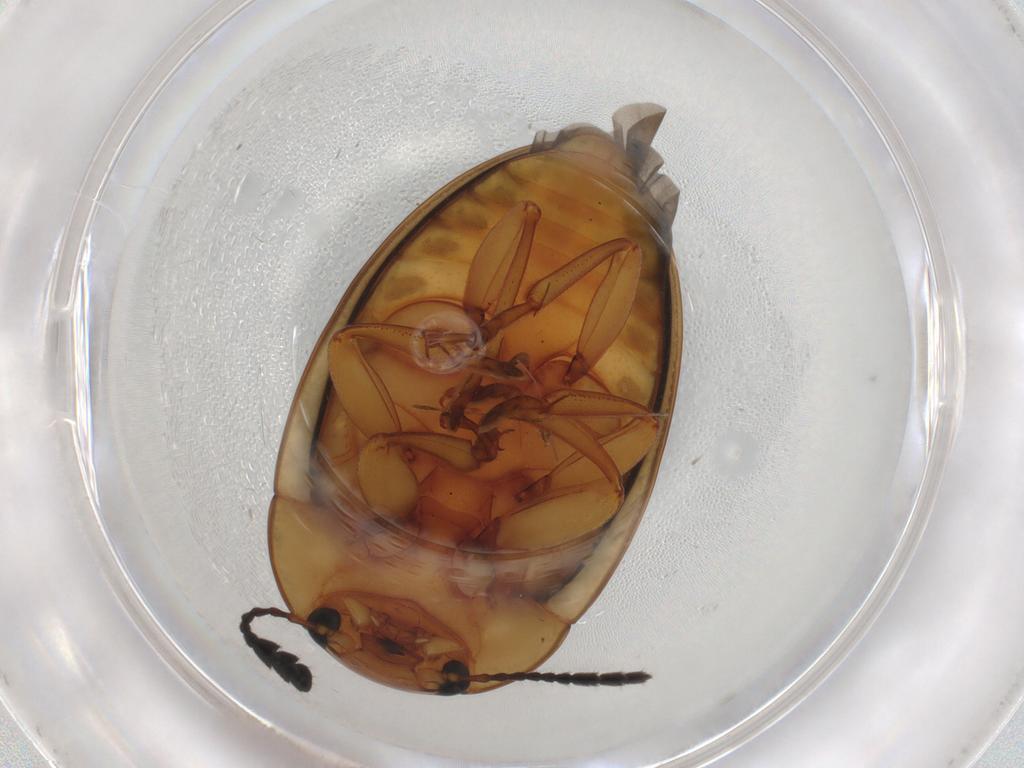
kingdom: Animalia
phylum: Arthropoda
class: Insecta
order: Coleoptera
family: Erotylidae
